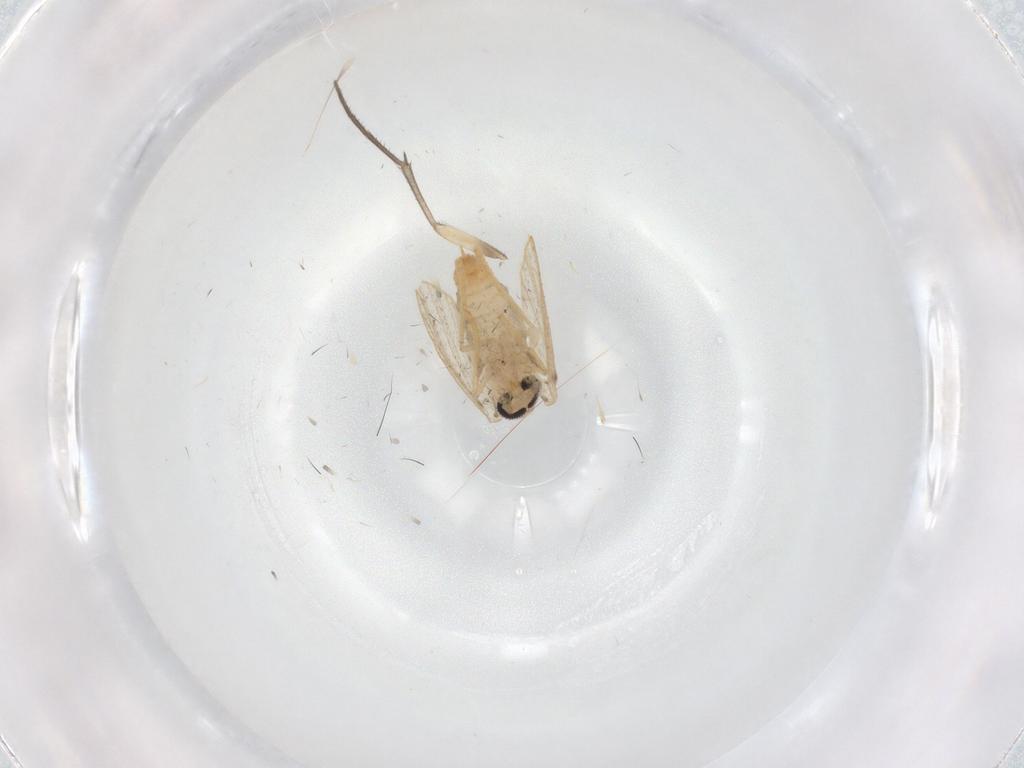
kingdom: Animalia
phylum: Arthropoda
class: Insecta
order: Diptera
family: Psychodidae
